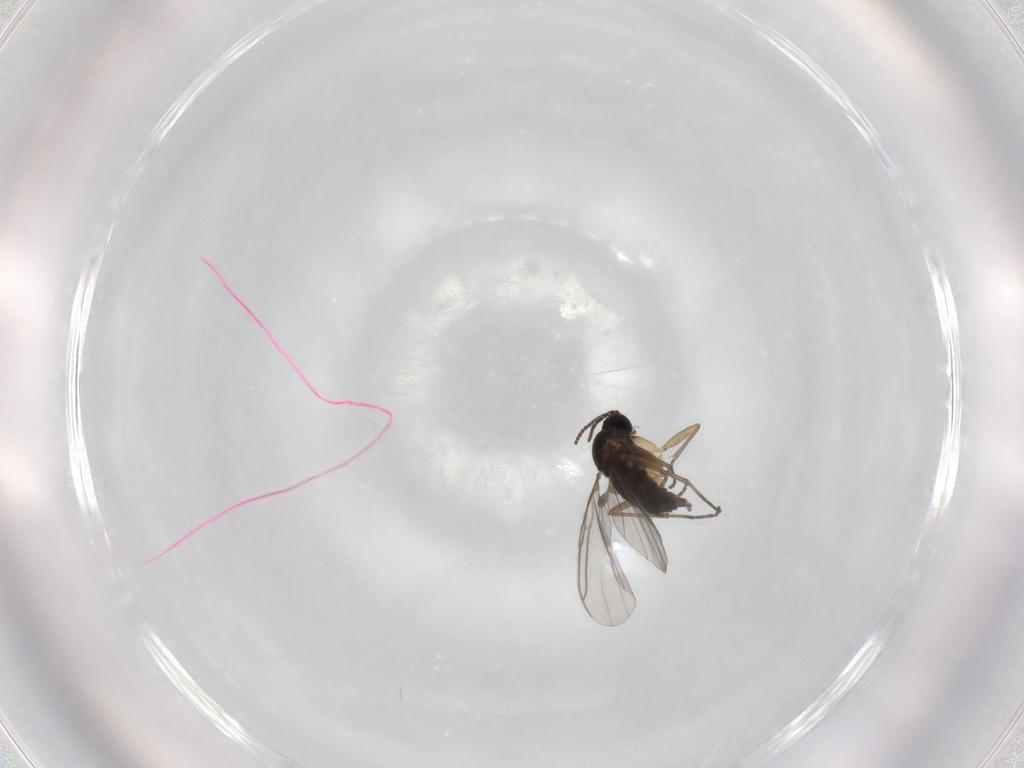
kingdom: Animalia
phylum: Arthropoda
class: Insecta
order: Diptera
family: Sciaridae
